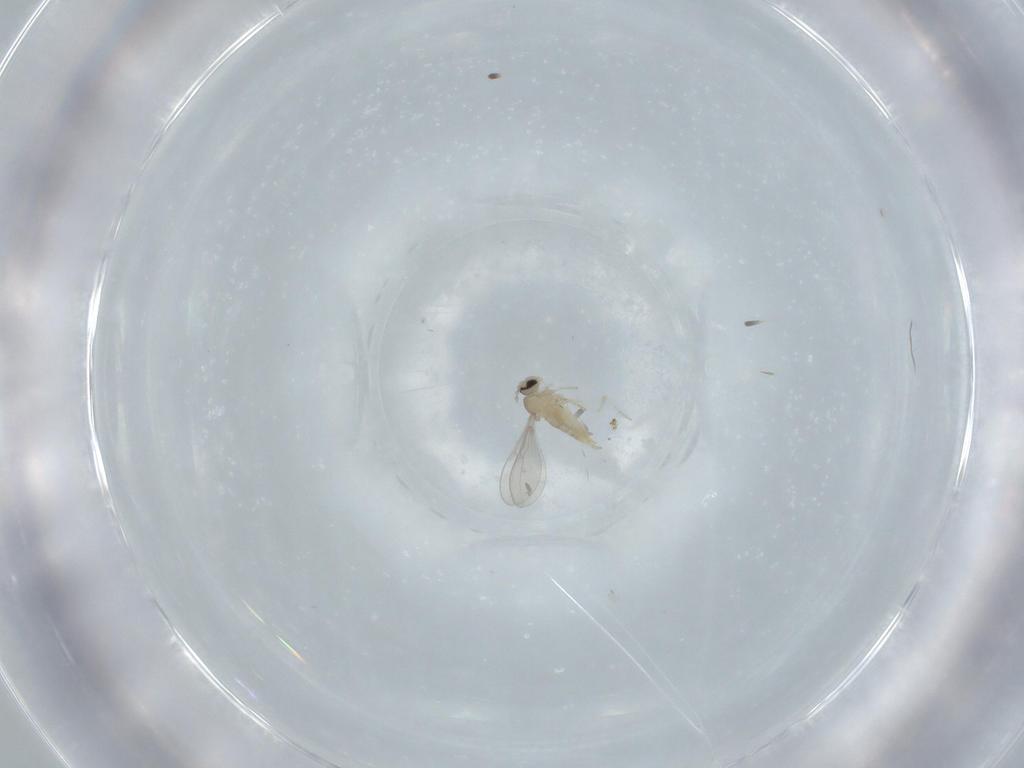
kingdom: Animalia
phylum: Arthropoda
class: Insecta
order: Diptera
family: Cecidomyiidae
